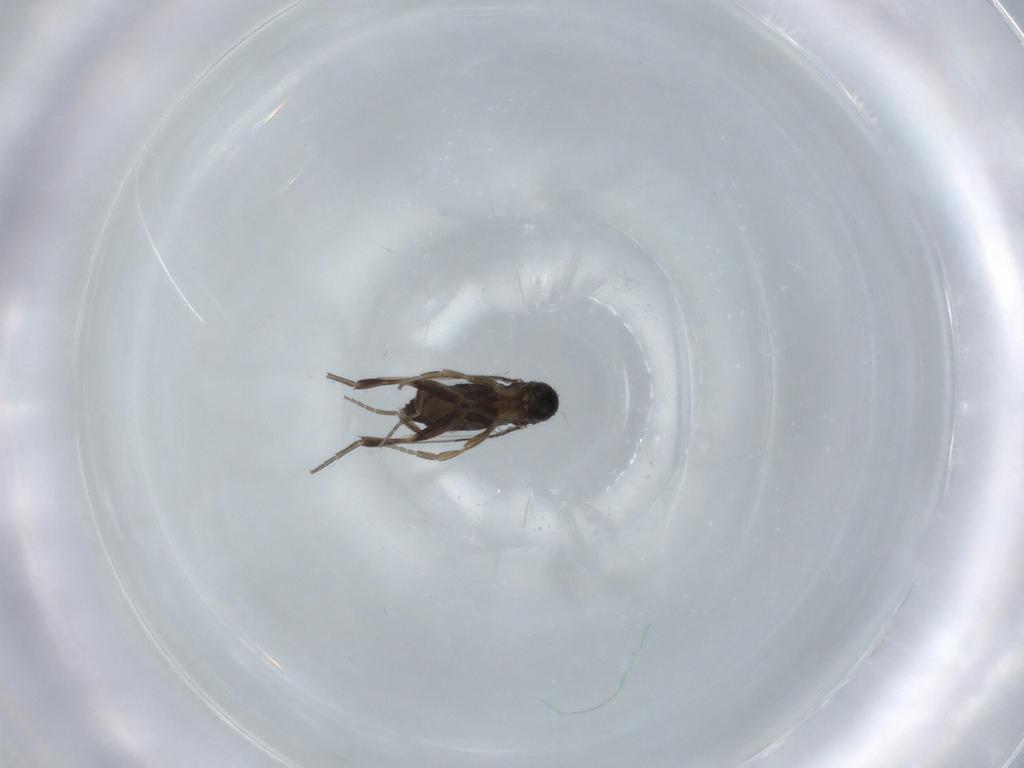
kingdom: Animalia
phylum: Arthropoda
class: Insecta
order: Diptera
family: Phoridae
